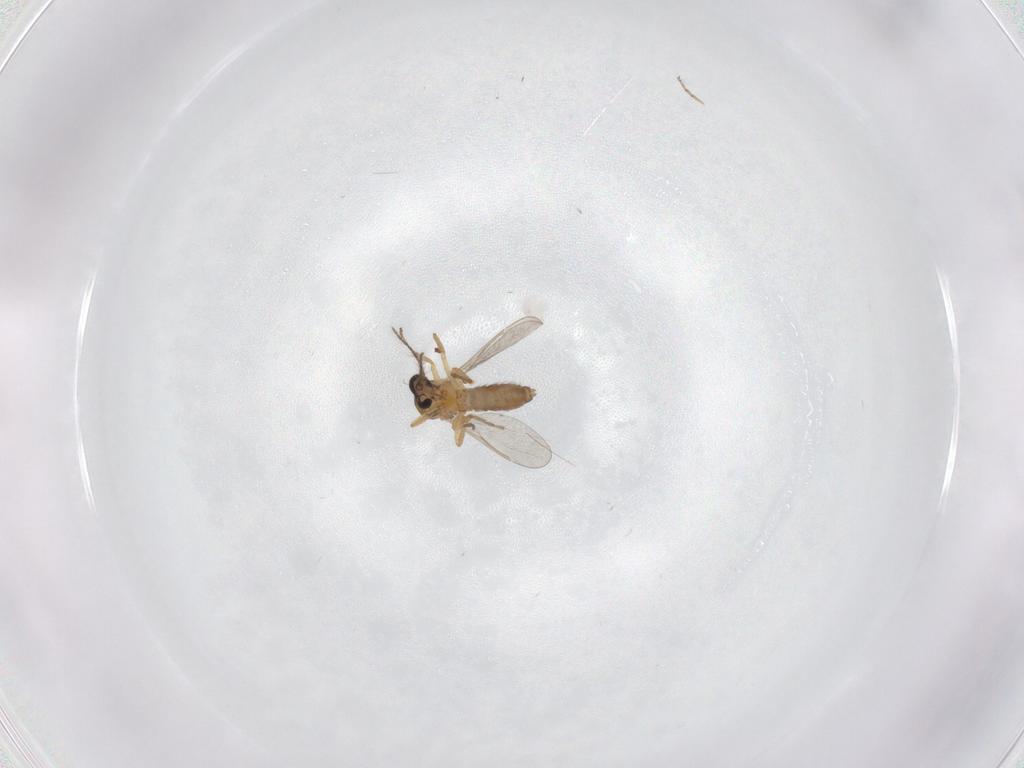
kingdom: Animalia
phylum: Arthropoda
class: Insecta
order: Diptera
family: Ceratopogonidae
